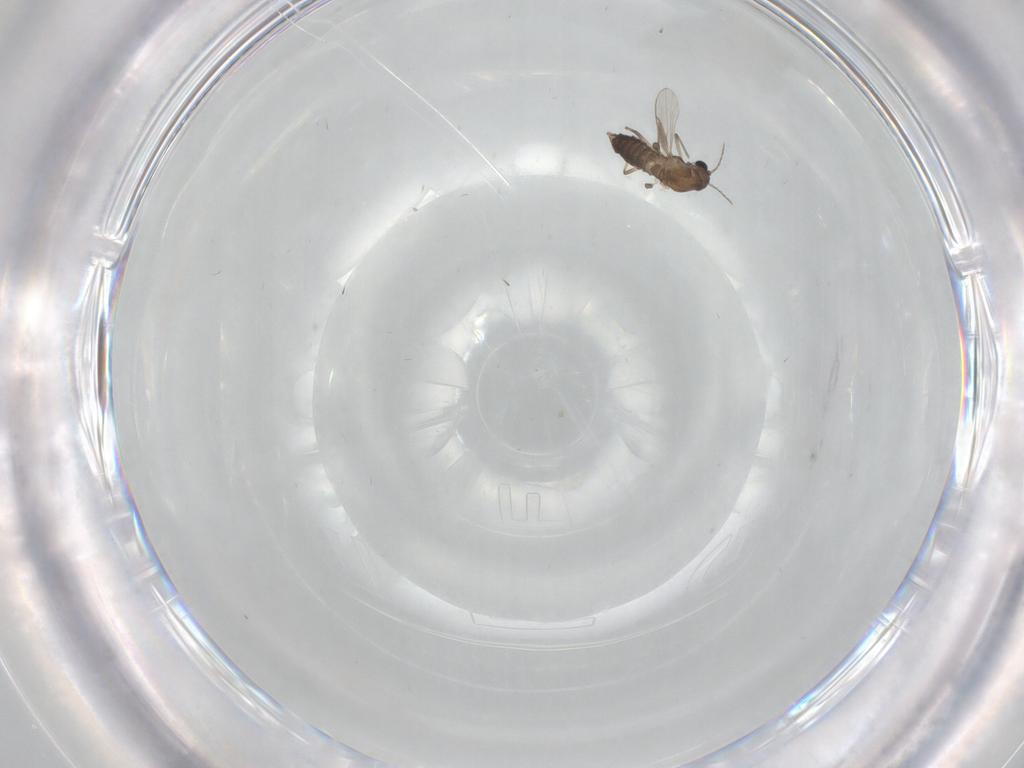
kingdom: Animalia
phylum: Arthropoda
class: Insecta
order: Diptera
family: Chironomidae
